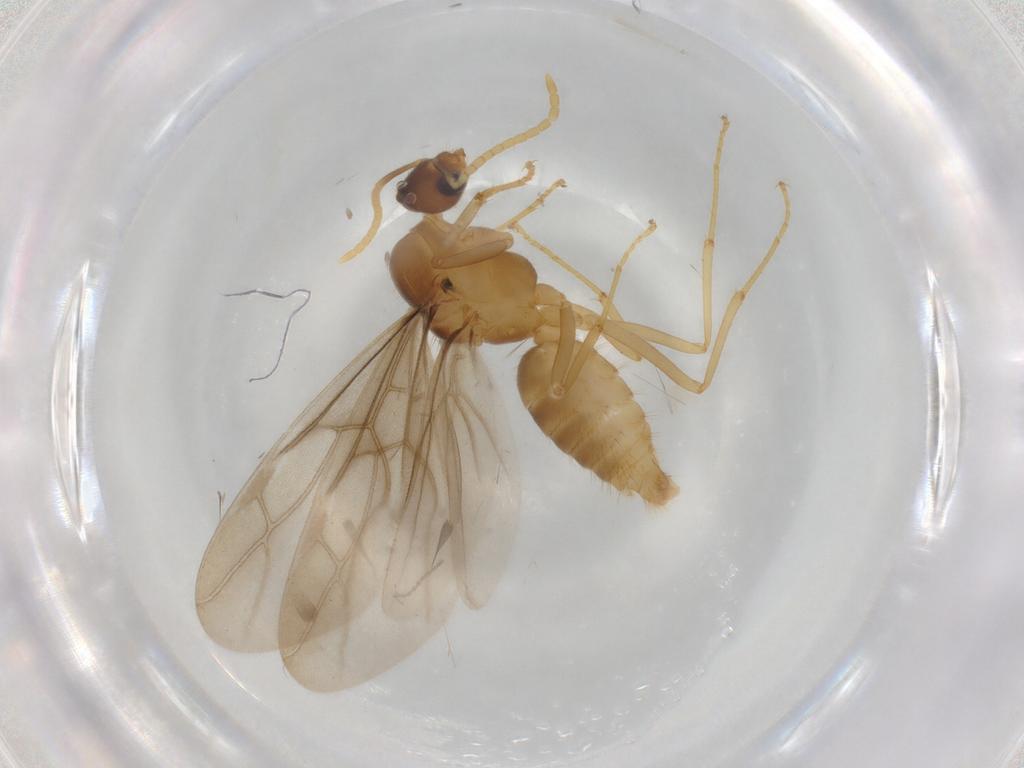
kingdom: Animalia
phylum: Arthropoda
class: Insecta
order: Hymenoptera
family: Formicidae
